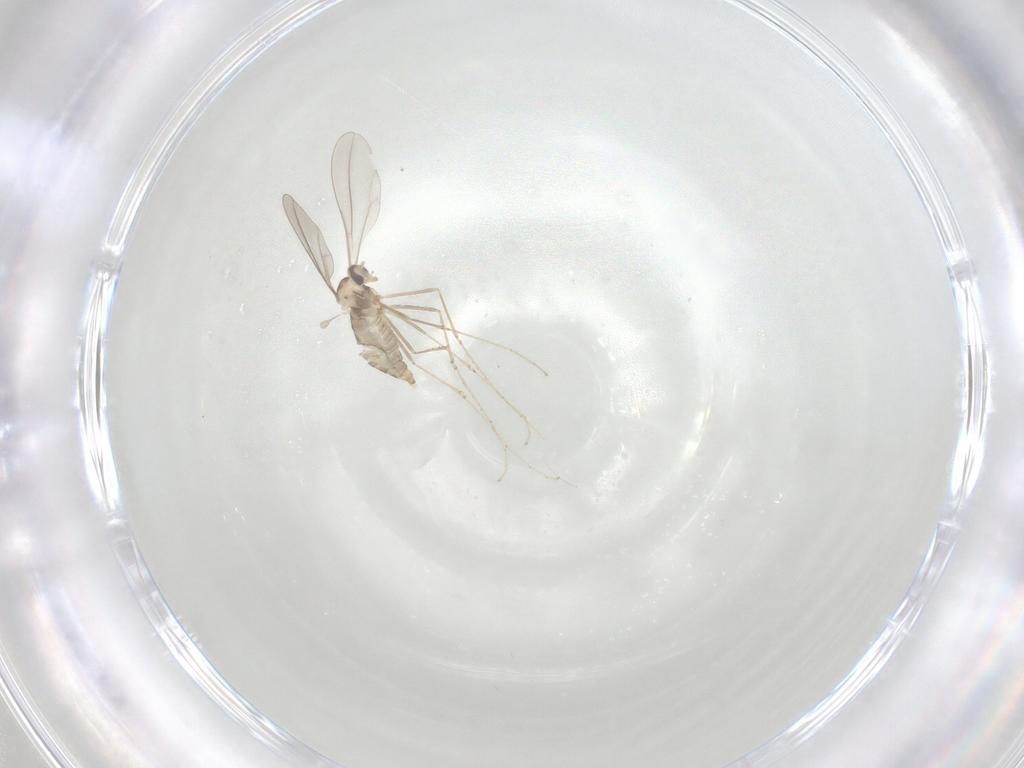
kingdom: Animalia
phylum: Arthropoda
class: Insecta
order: Diptera
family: Cecidomyiidae
